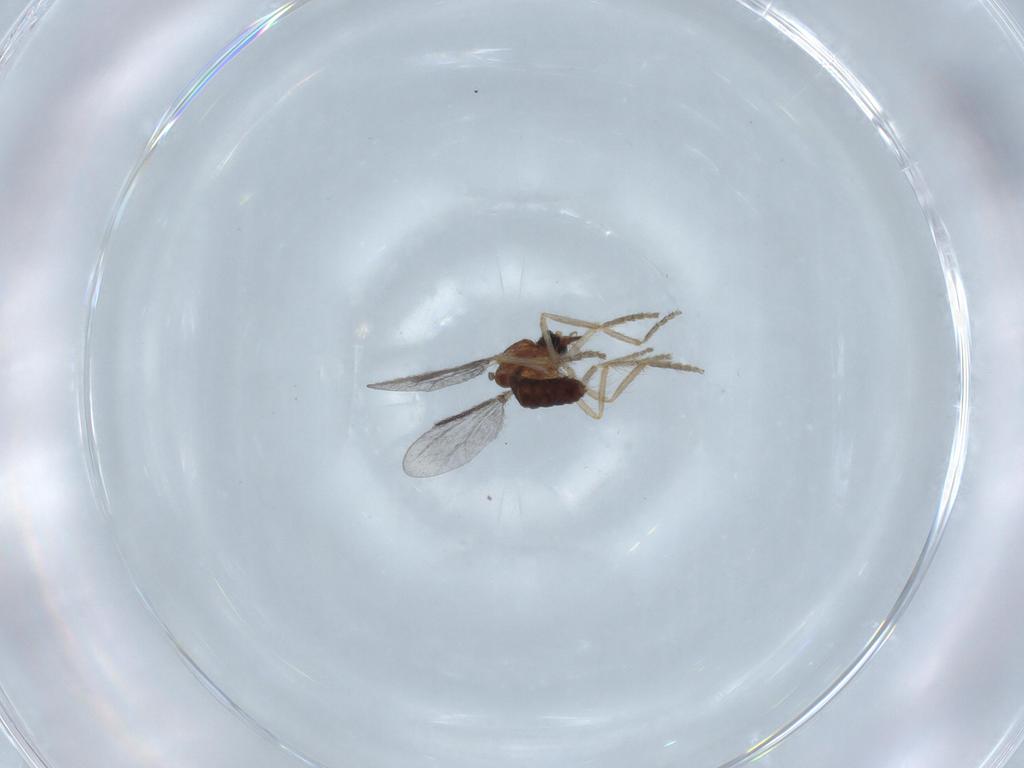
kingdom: Animalia
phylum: Arthropoda
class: Insecta
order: Diptera
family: Ceratopogonidae
